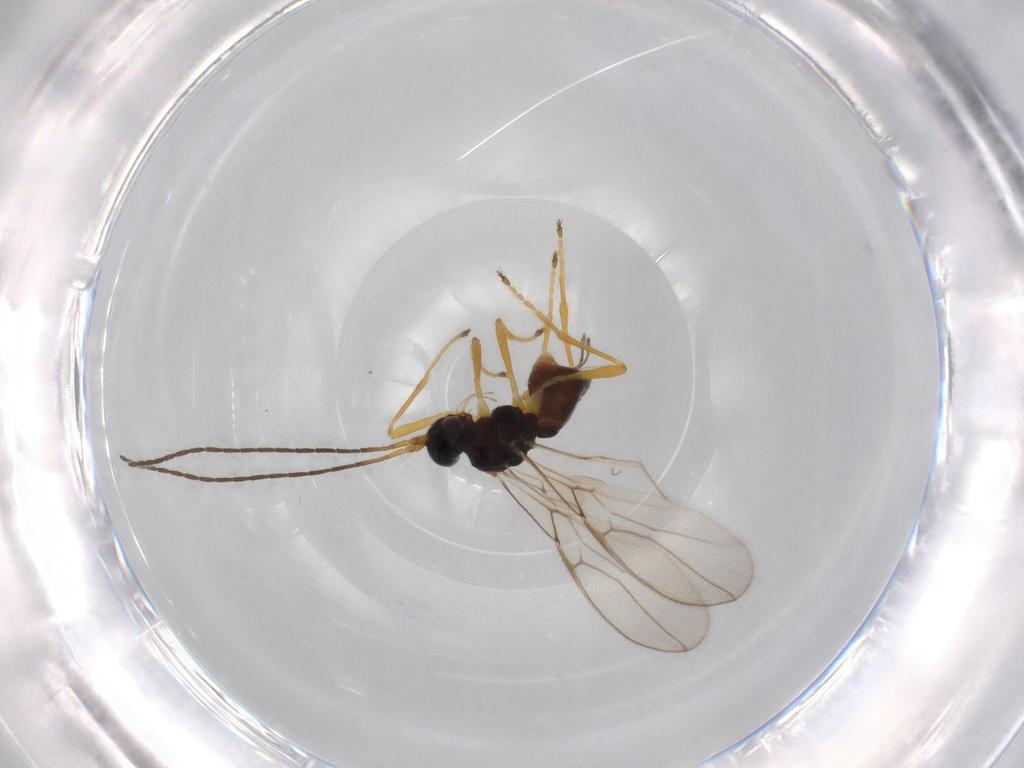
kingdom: Animalia
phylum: Arthropoda
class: Insecta
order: Hymenoptera
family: Braconidae
